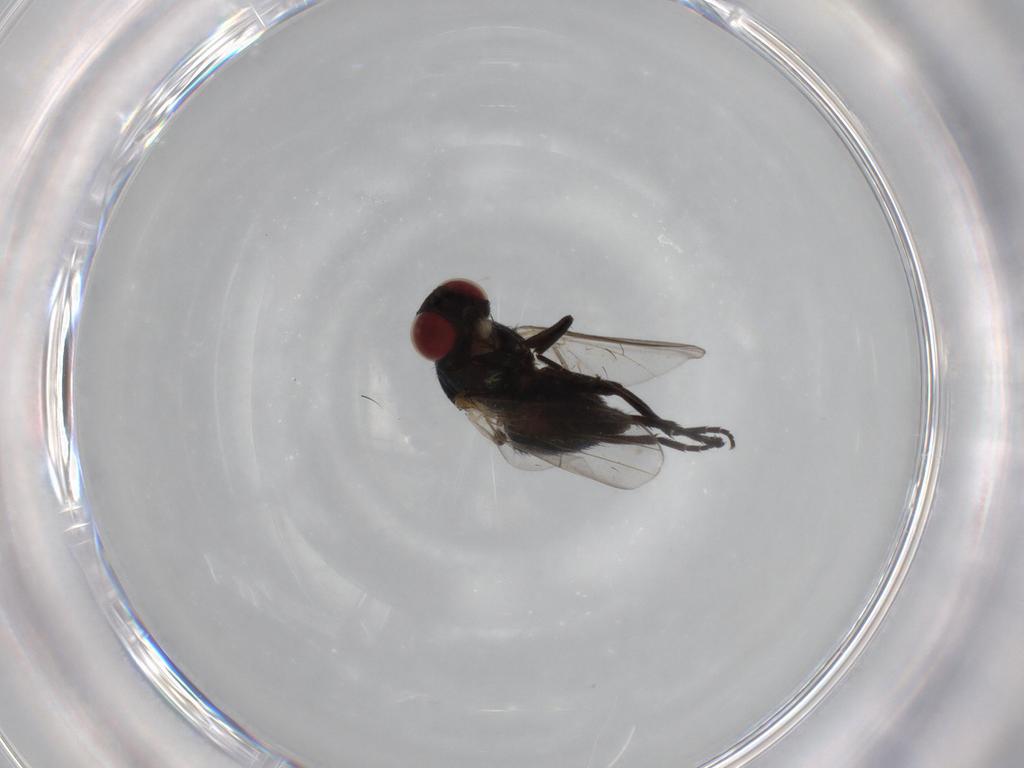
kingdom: Animalia
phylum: Arthropoda
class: Insecta
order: Diptera
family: Agromyzidae
